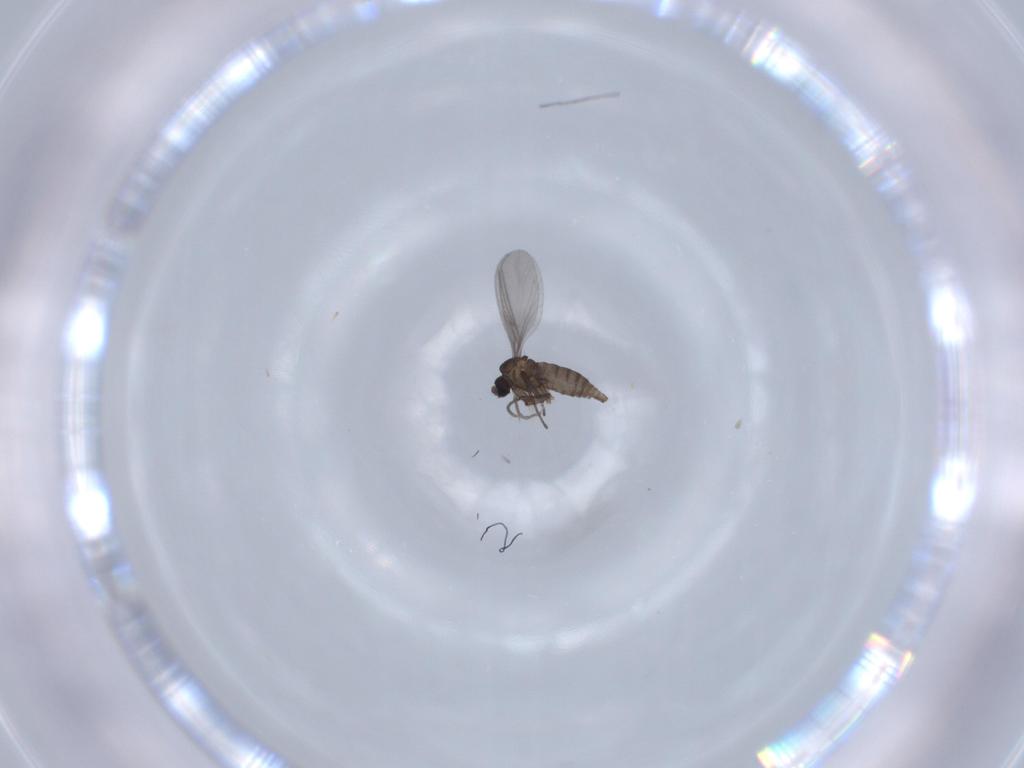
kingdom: Animalia
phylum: Arthropoda
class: Insecta
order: Diptera
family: Sciaridae
